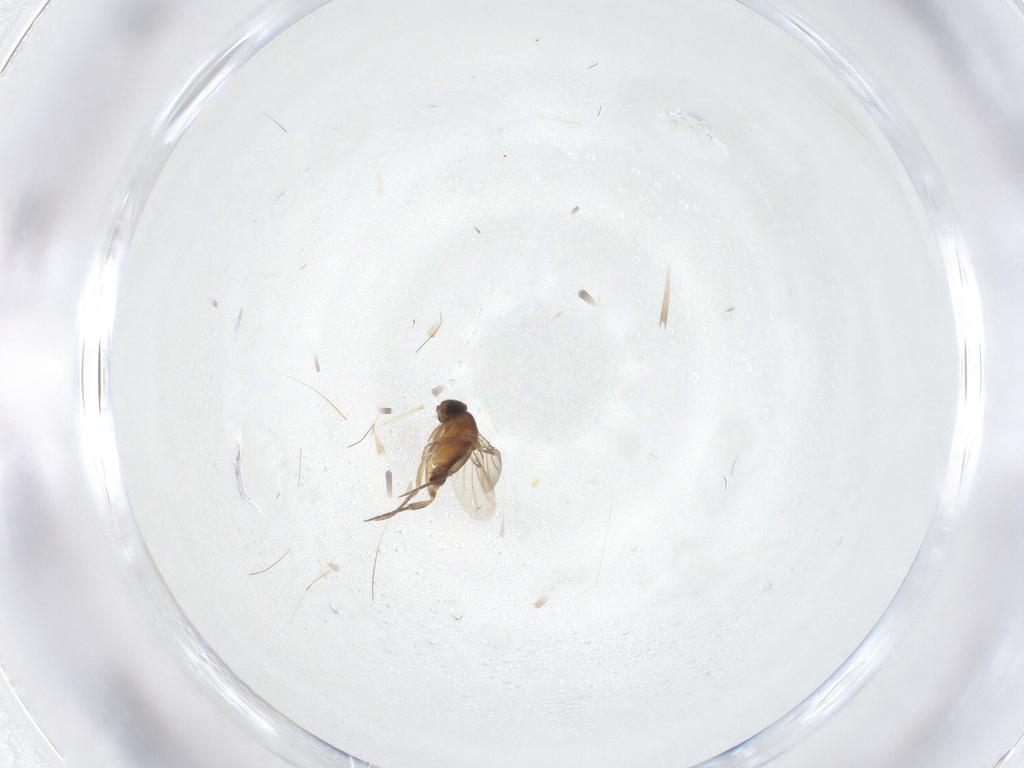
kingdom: Animalia
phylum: Arthropoda
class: Insecta
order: Diptera
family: Phoridae
